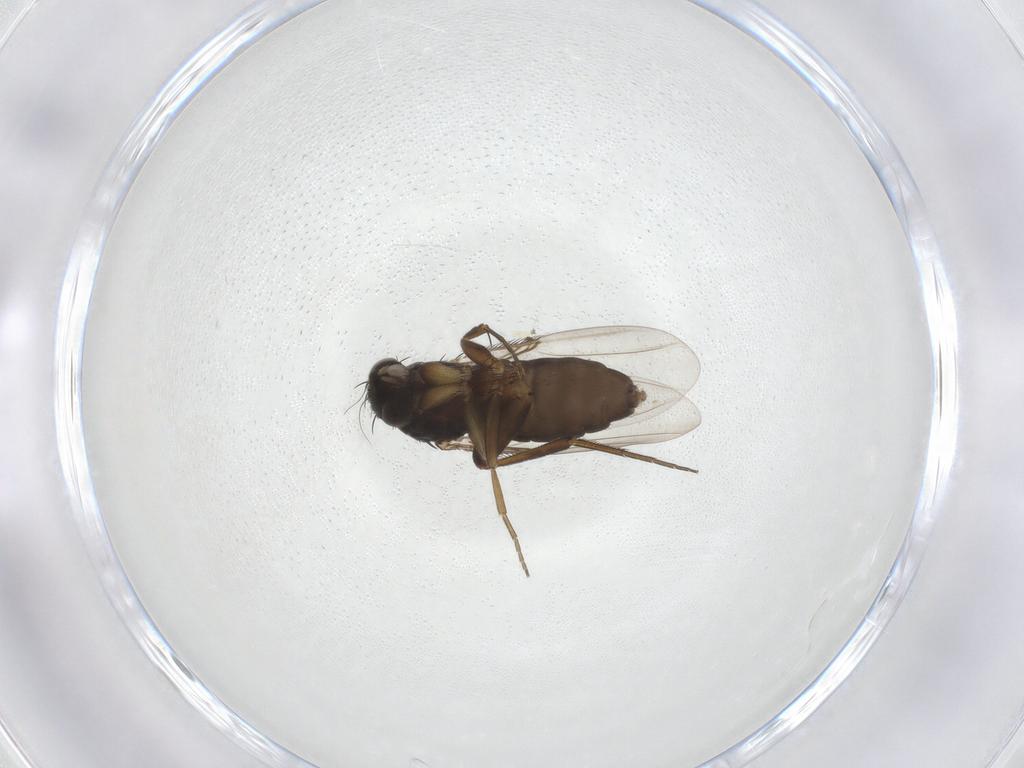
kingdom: Animalia
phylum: Arthropoda
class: Insecta
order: Diptera
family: Phoridae
